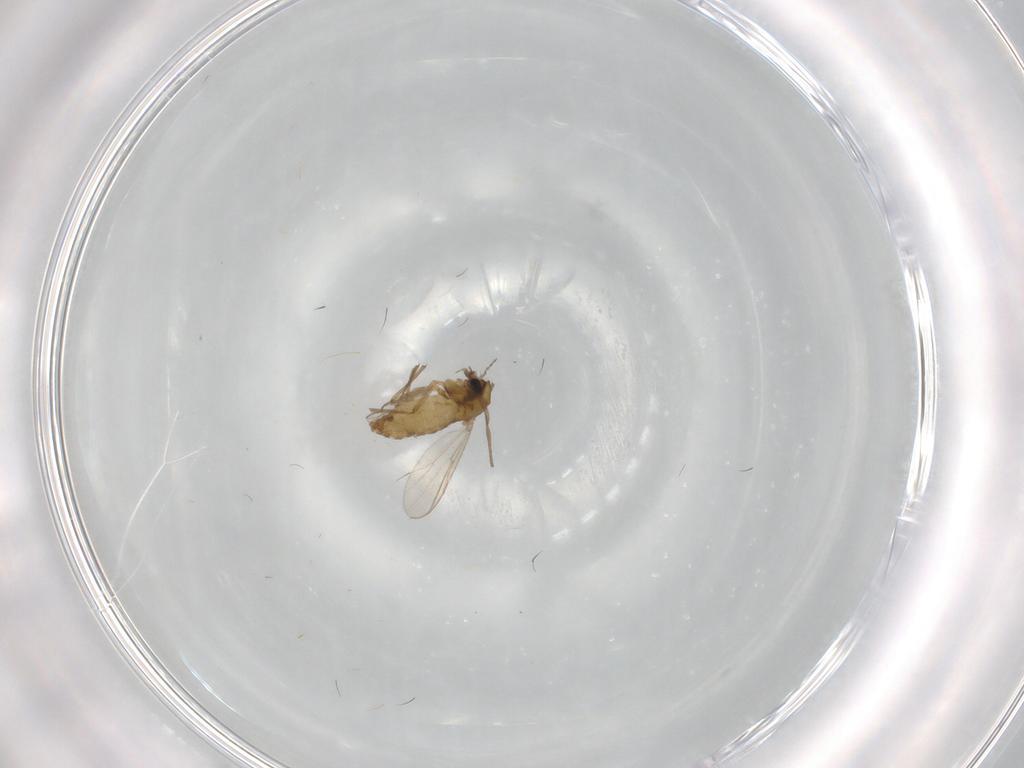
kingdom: Animalia
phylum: Arthropoda
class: Insecta
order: Diptera
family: Chironomidae
